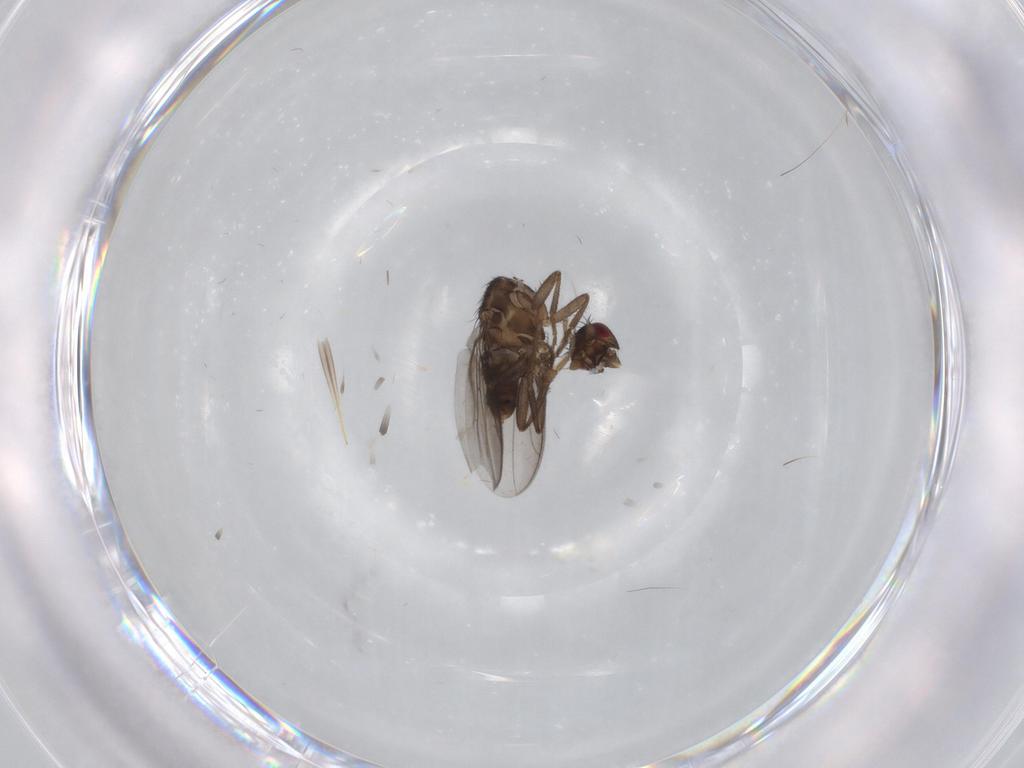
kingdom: Animalia
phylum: Arthropoda
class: Insecta
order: Diptera
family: Sphaeroceridae
